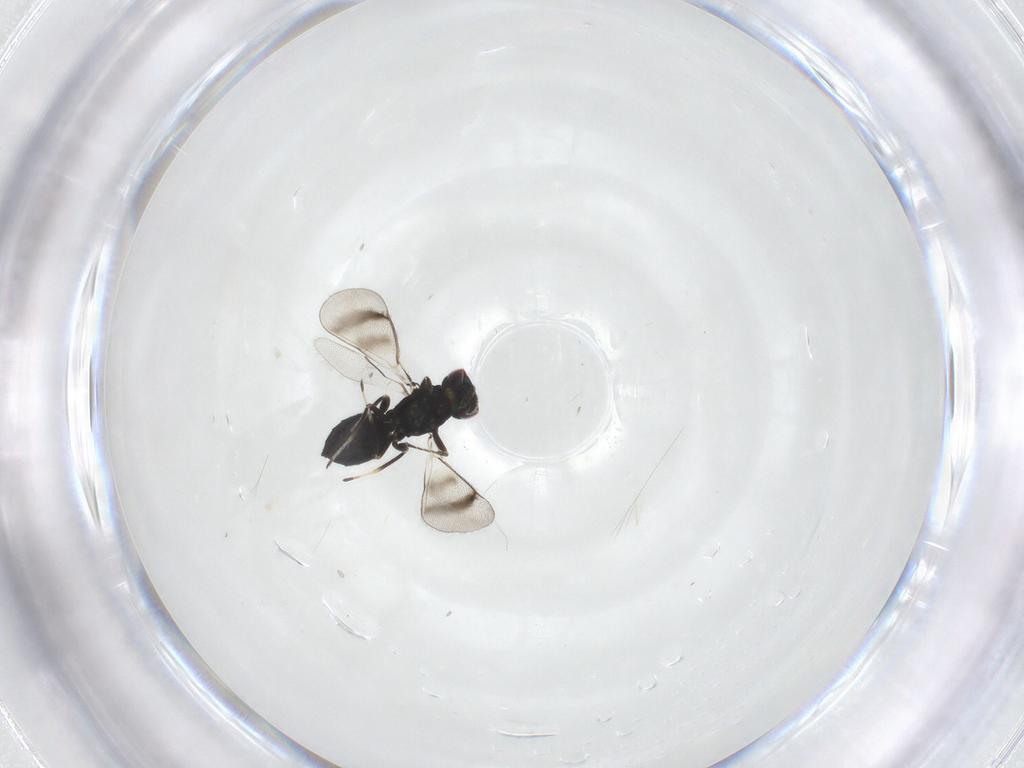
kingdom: Animalia
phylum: Arthropoda
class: Insecta
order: Hymenoptera
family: Eulophidae
